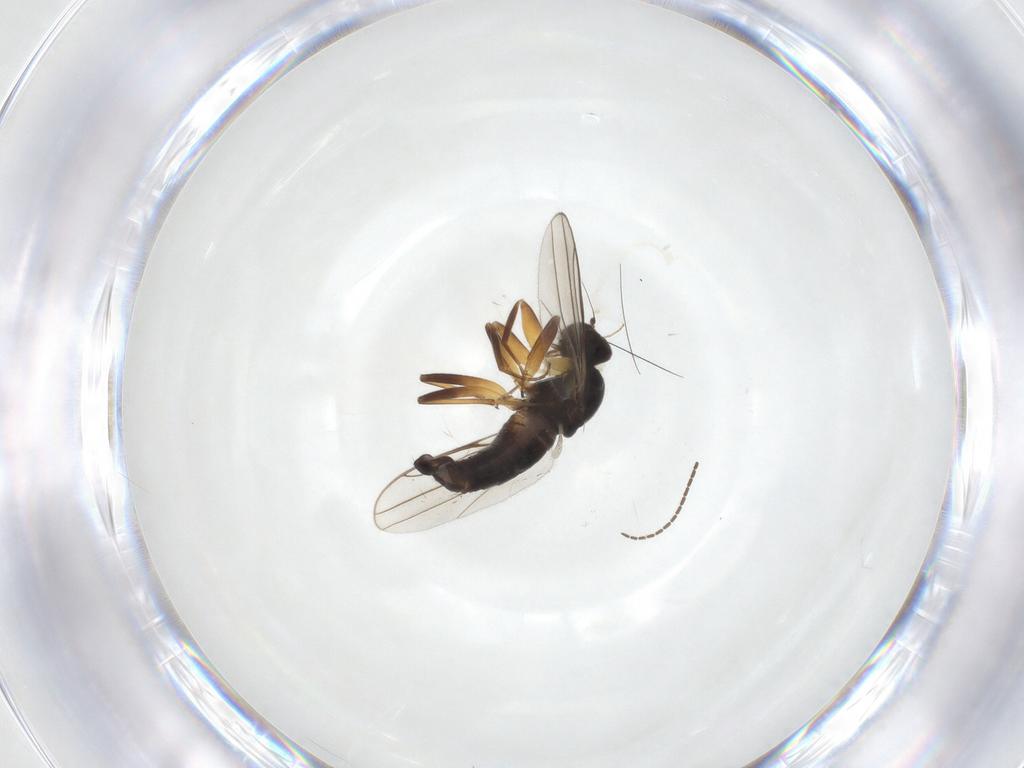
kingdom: Animalia
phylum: Arthropoda
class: Insecta
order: Diptera
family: Hybotidae
